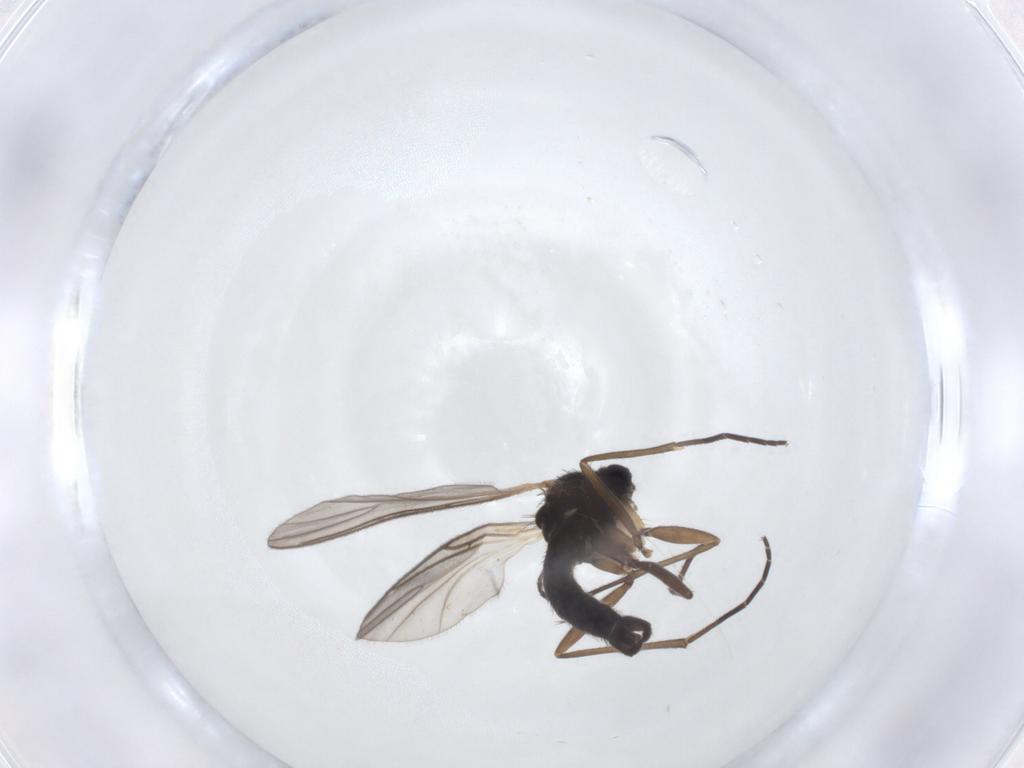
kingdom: Animalia
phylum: Arthropoda
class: Insecta
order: Diptera
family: Sciaridae
